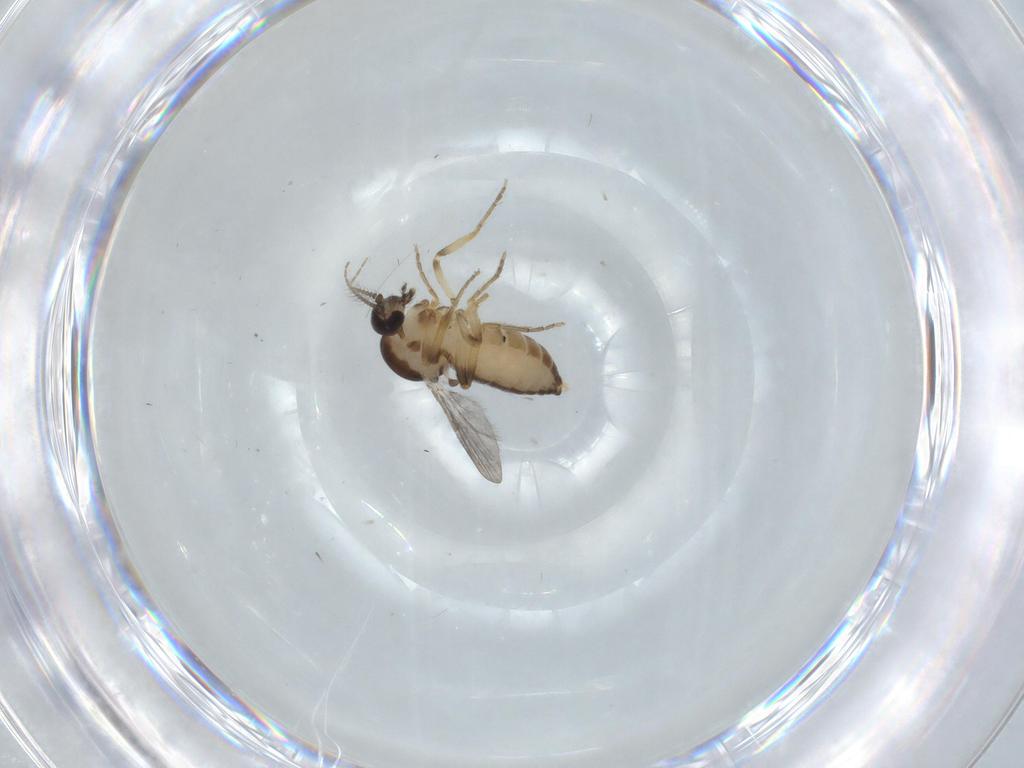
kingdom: Animalia
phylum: Arthropoda
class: Insecta
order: Diptera
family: Ceratopogonidae
